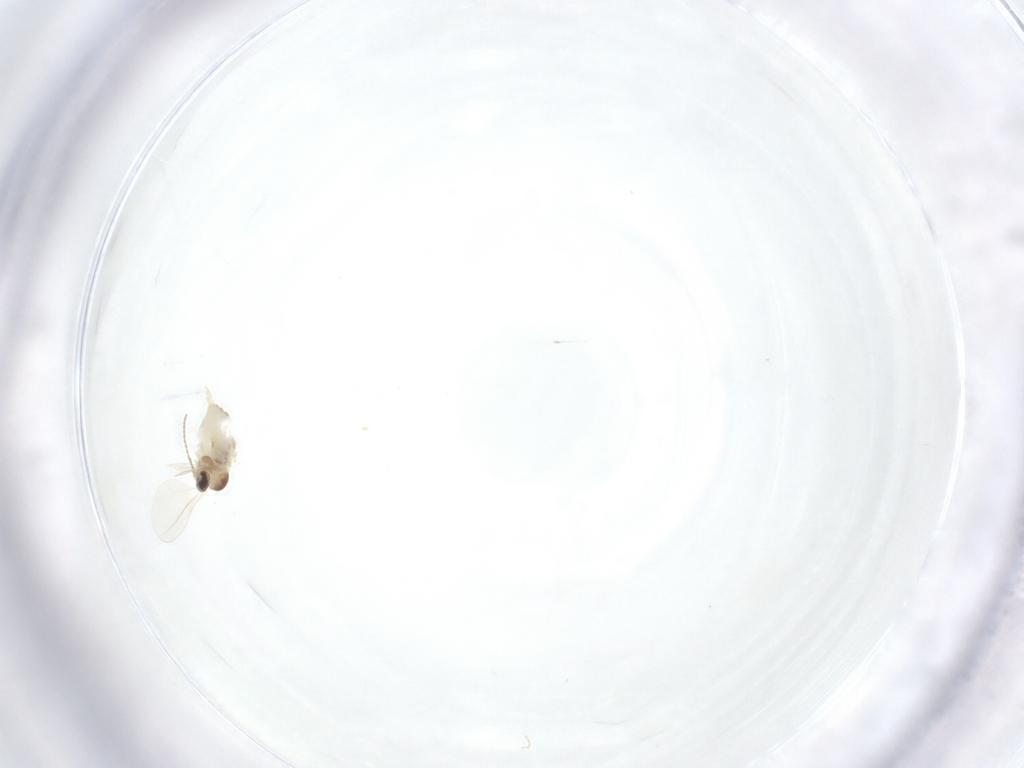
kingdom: Animalia
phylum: Arthropoda
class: Insecta
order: Diptera
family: Cecidomyiidae
